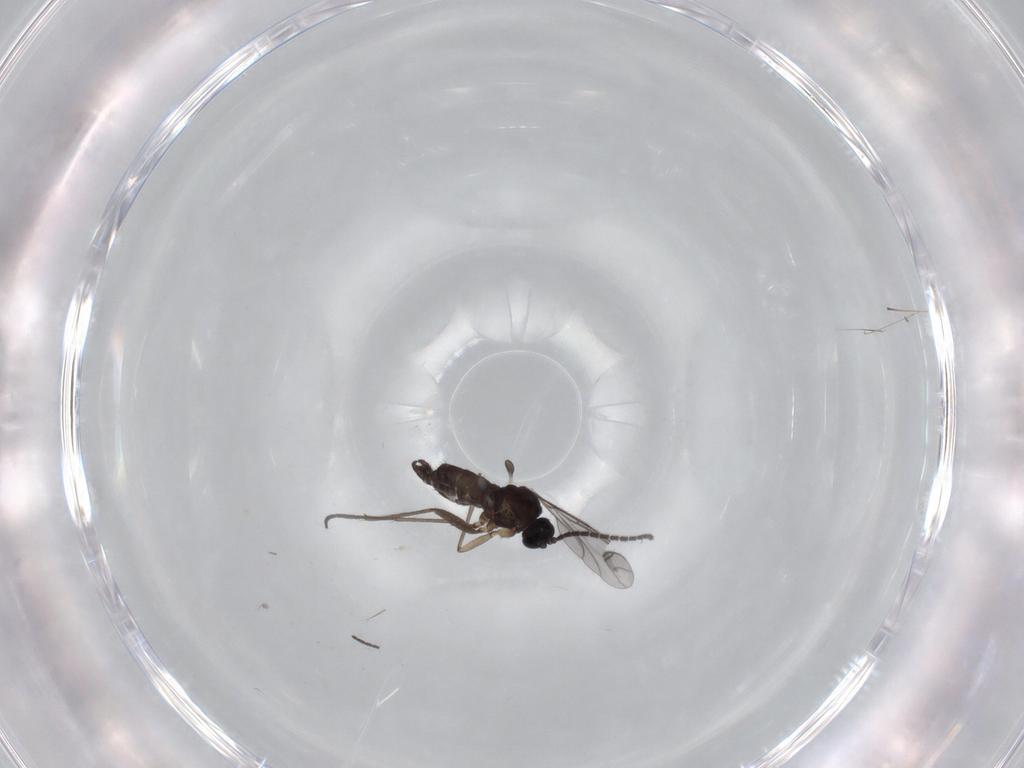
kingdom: Animalia
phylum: Arthropoda
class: Insecta
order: Diptera
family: Sciaridae
